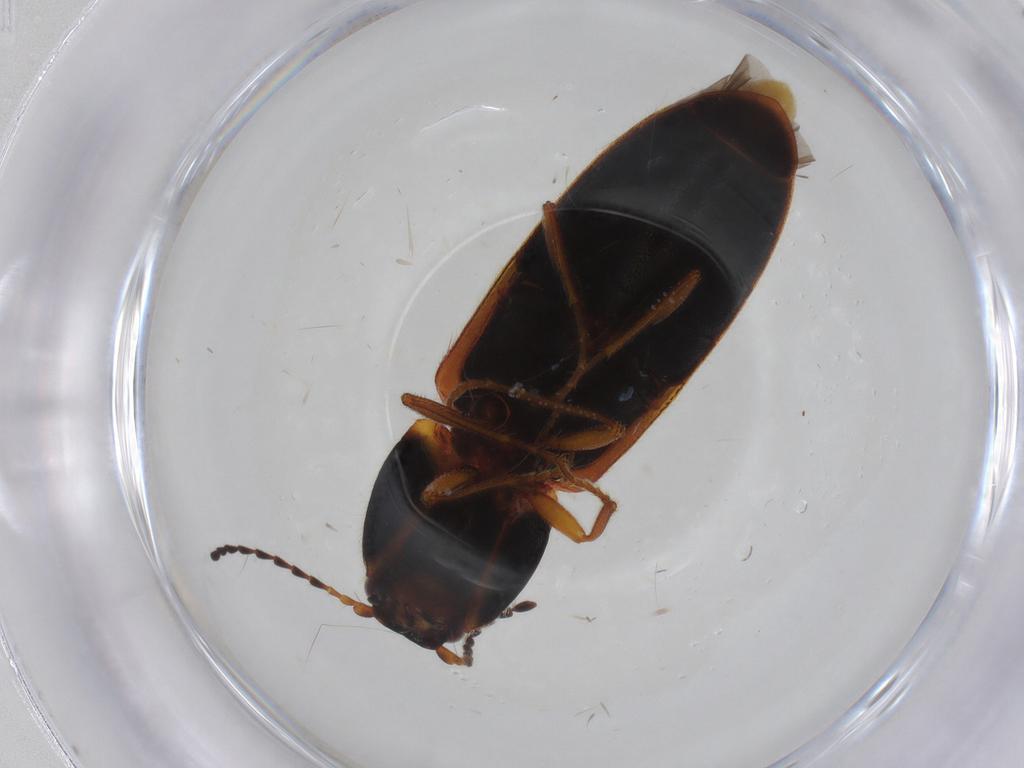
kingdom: Animalia
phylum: Arthropoda
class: Insecta
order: Coleoptera
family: Elateridae
